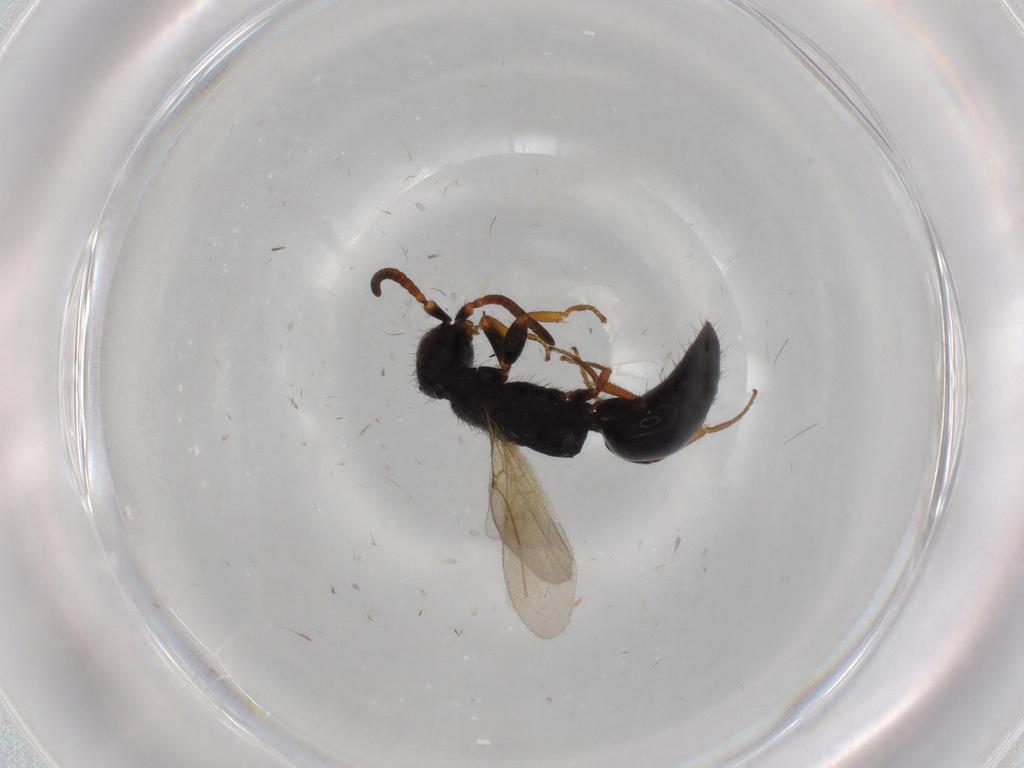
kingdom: Animalia
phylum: Arthropoda
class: Insecta
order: Hymenoptera
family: Bethylidae
